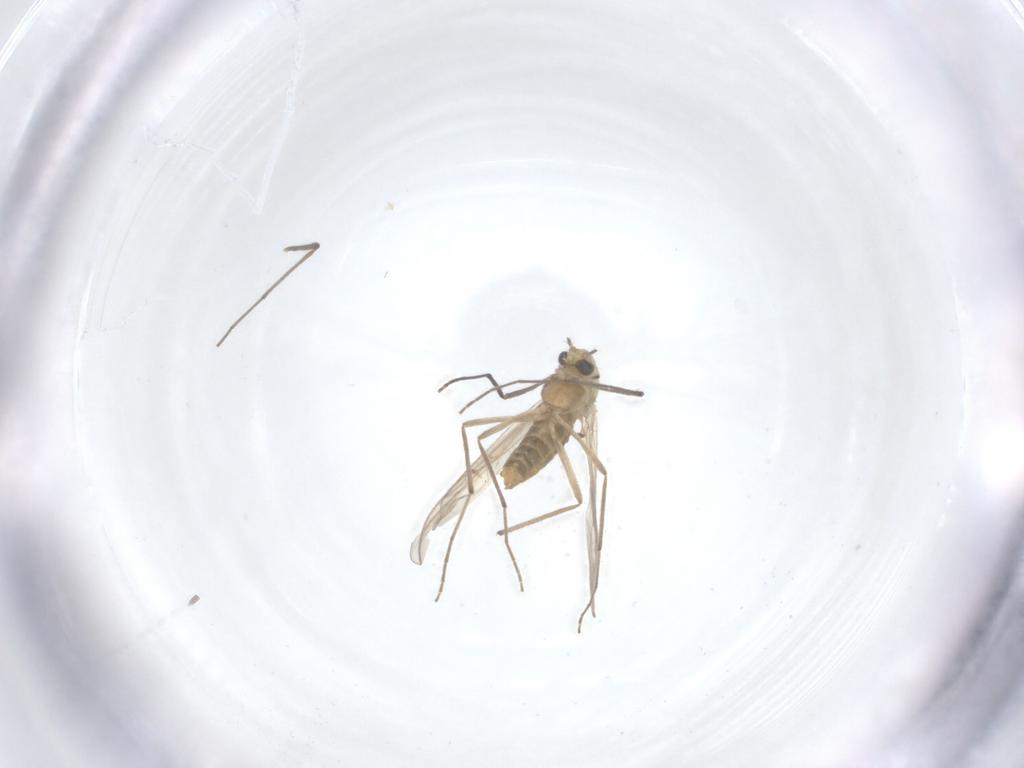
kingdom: Animalia
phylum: Arthropoda
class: Insecta
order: Diptera
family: Chironomidae
